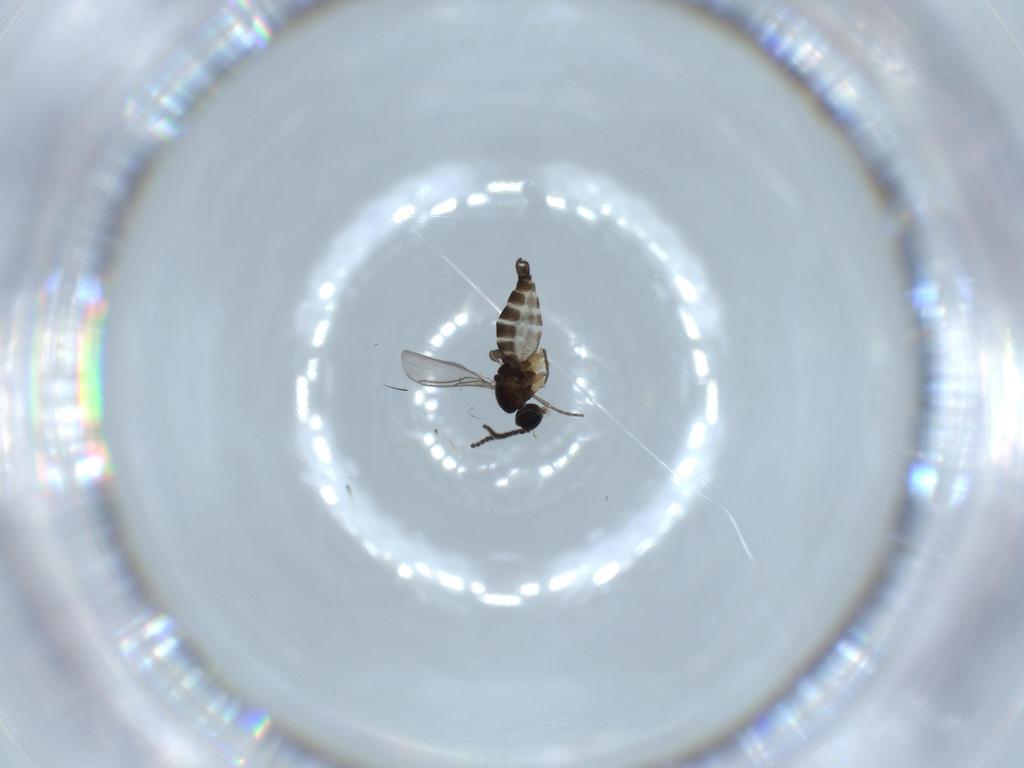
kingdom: Animalia
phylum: Arthropoda
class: Insecta
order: Diptera
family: Sciaridae
